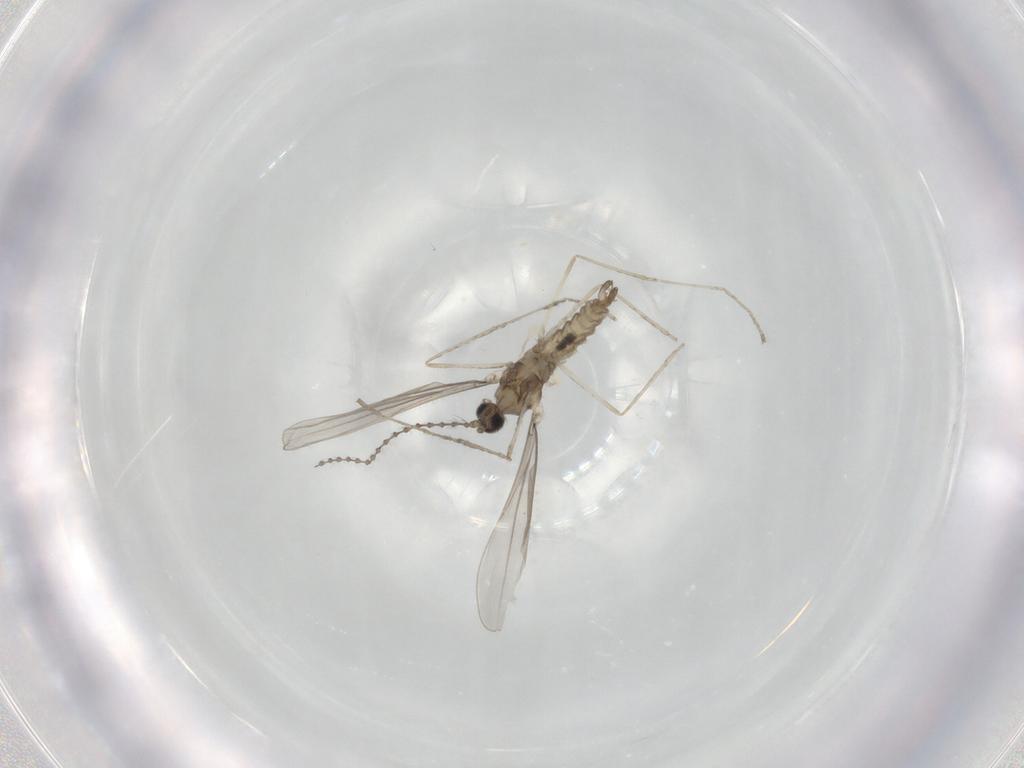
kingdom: Animalia
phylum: Arthropoda
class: Insecta
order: Diptera
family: Cecidomyiidae
